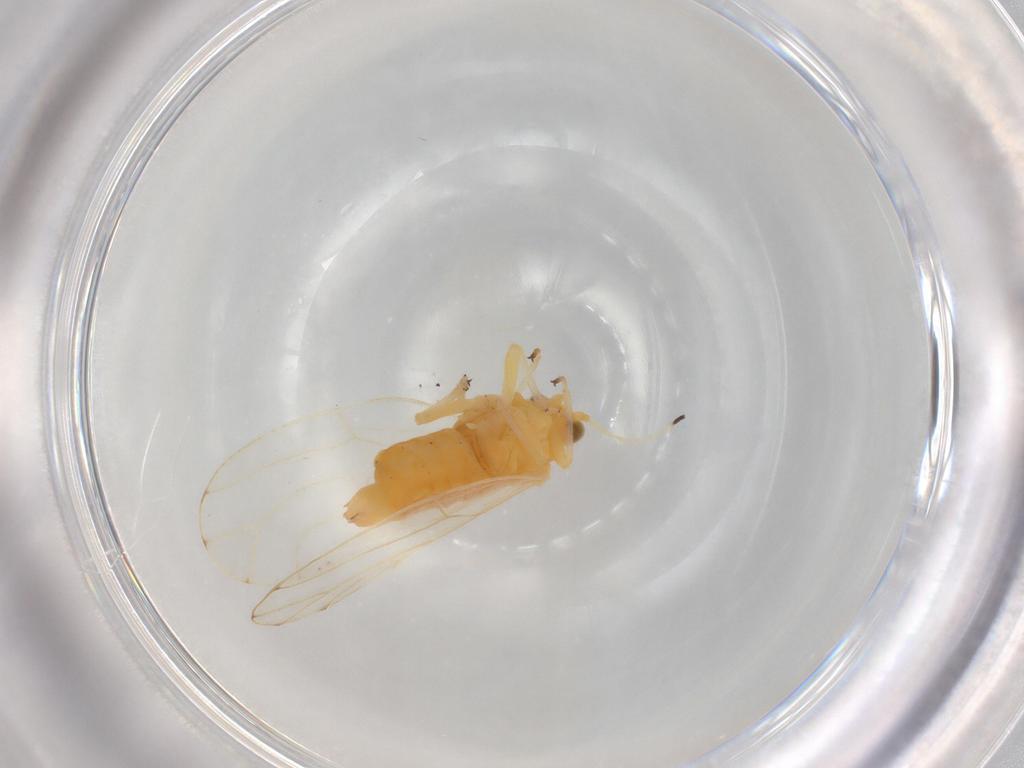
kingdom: Animalia
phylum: Arthropoda
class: Insecta
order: Hemiptera
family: Aphalaridae
